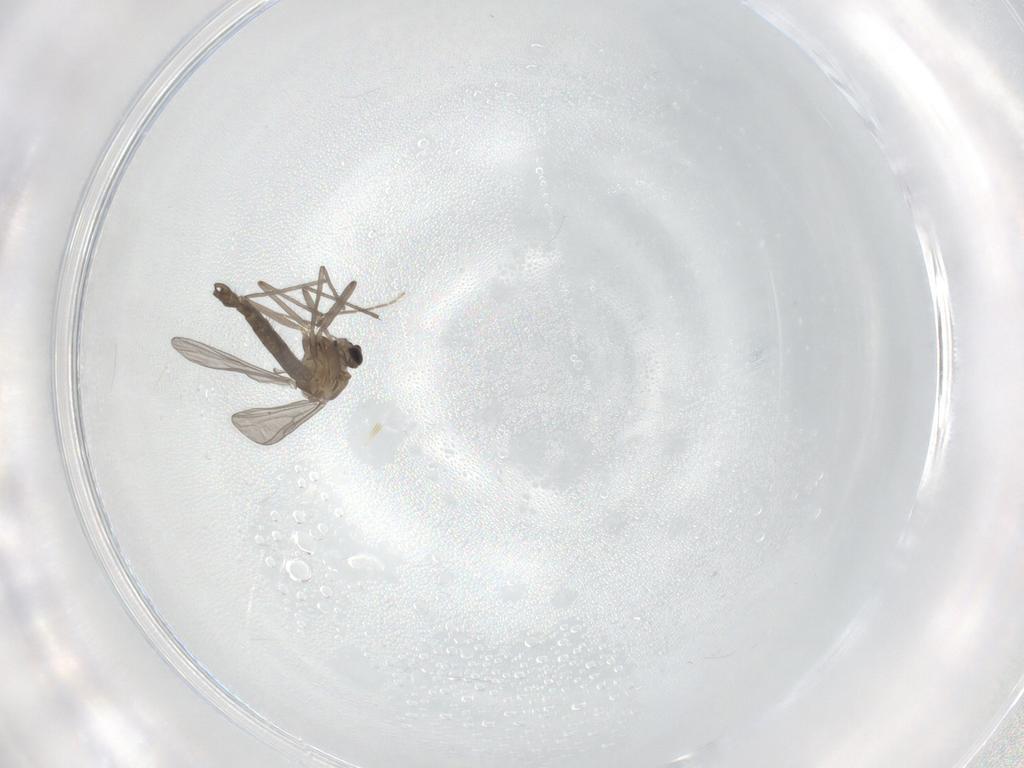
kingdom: Animalia
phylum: Arthropoda
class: Insecta
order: Diptera
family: Chironomidae
